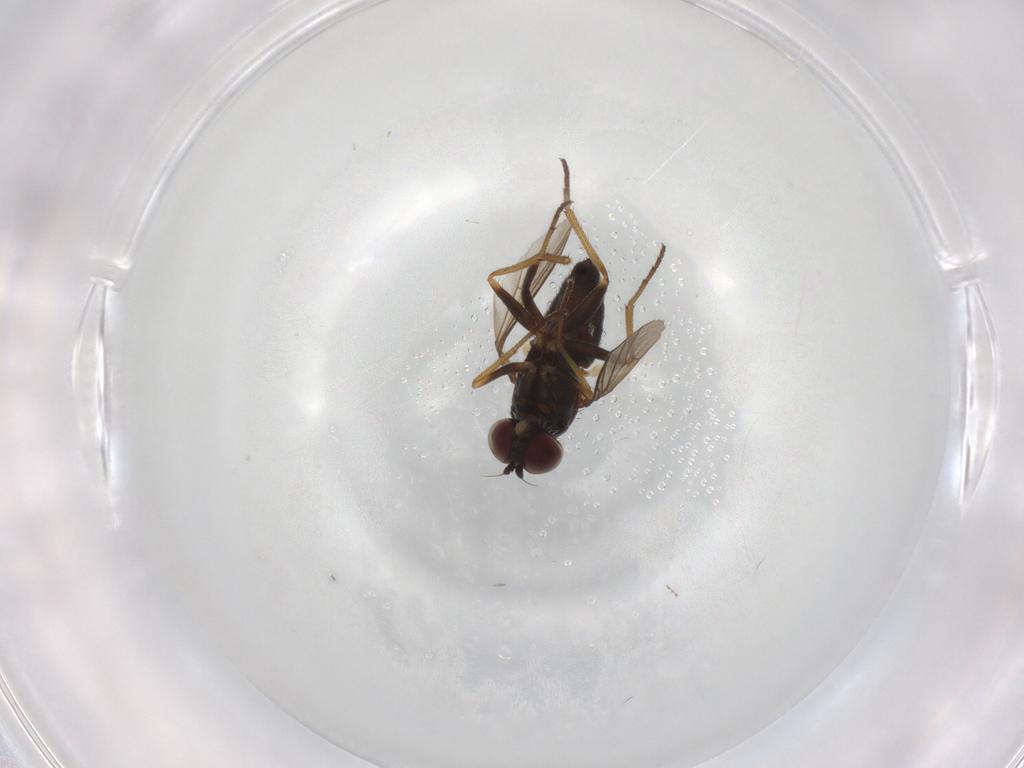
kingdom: Animalia
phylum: Arthropoda
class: Insecta
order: Diptera
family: Dolichopodidae
